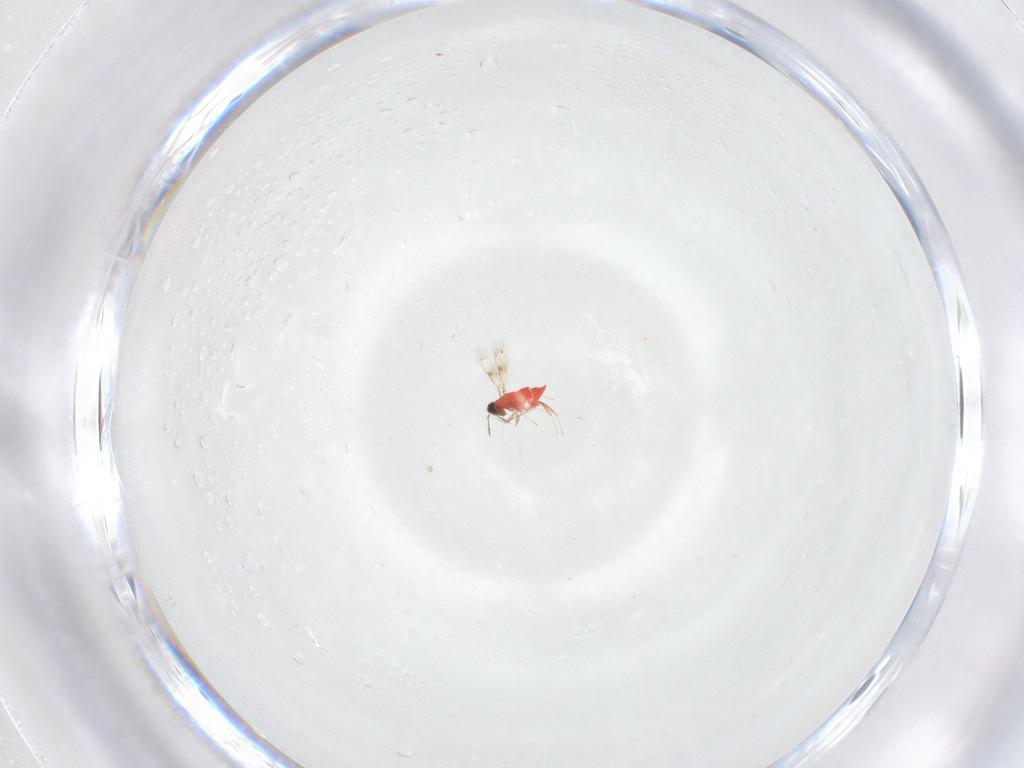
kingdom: Animalia
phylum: Arthropoda
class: Insecta
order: Hymenoptera
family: Trichogrammatidae
